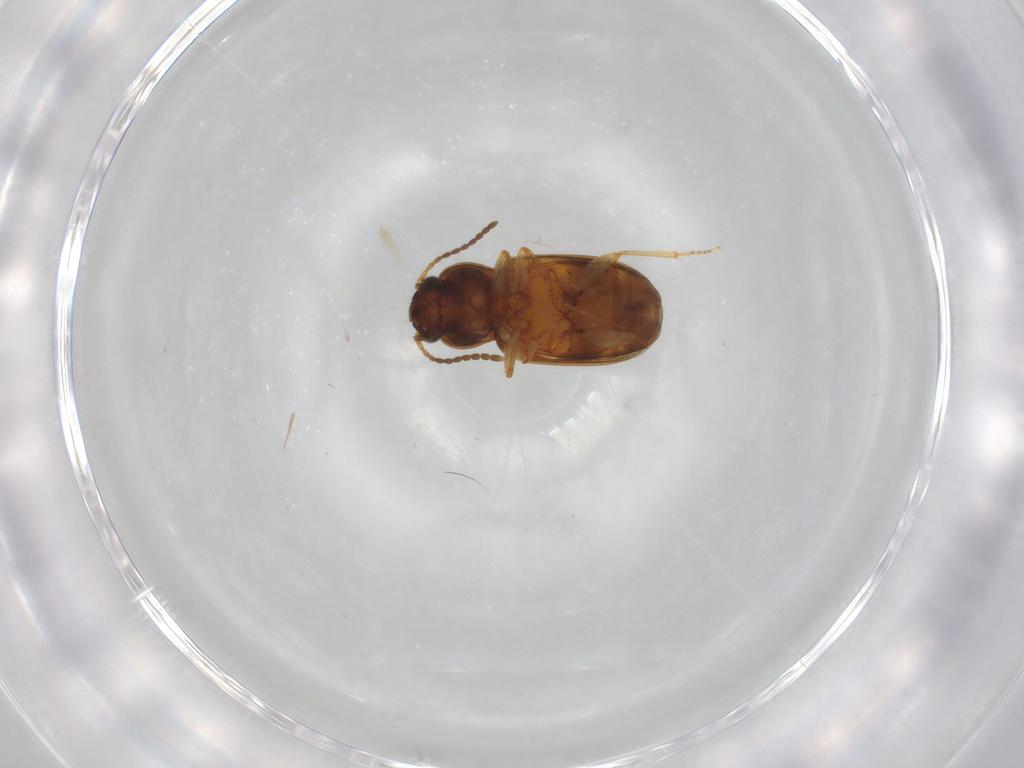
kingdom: Animalia
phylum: Arthropoda
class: Insecta
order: Coleoptera
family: Carabidae
